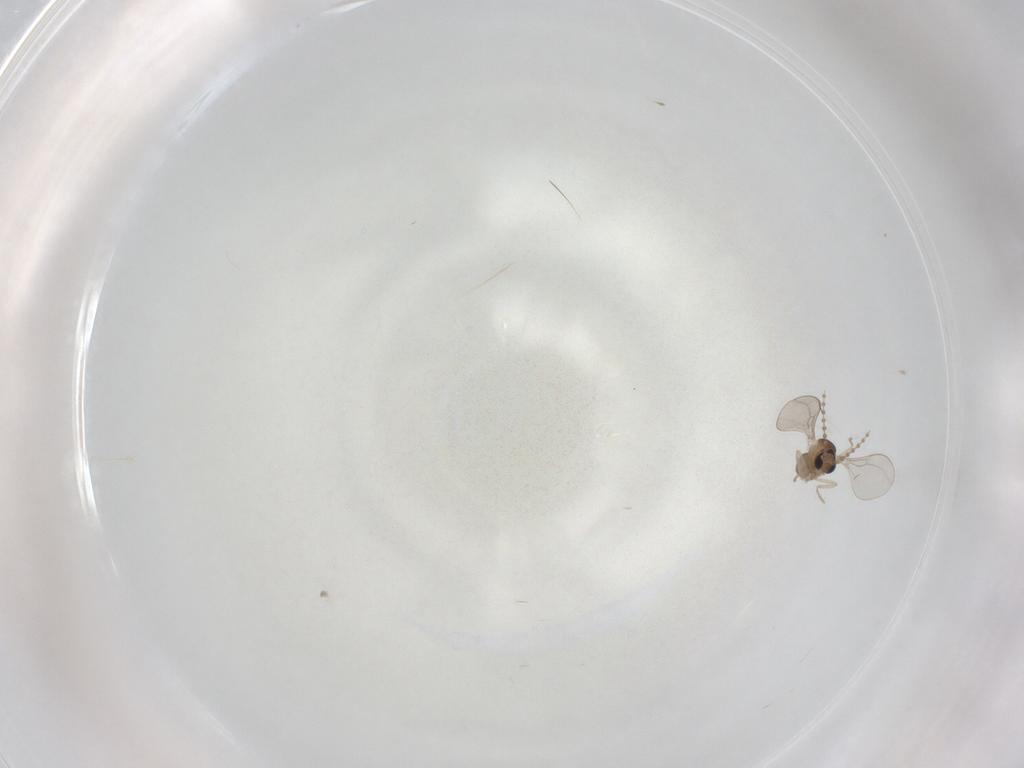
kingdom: Animalia
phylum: Arthropoda
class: Insecta
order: Diptera
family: Cecidomyiidae
